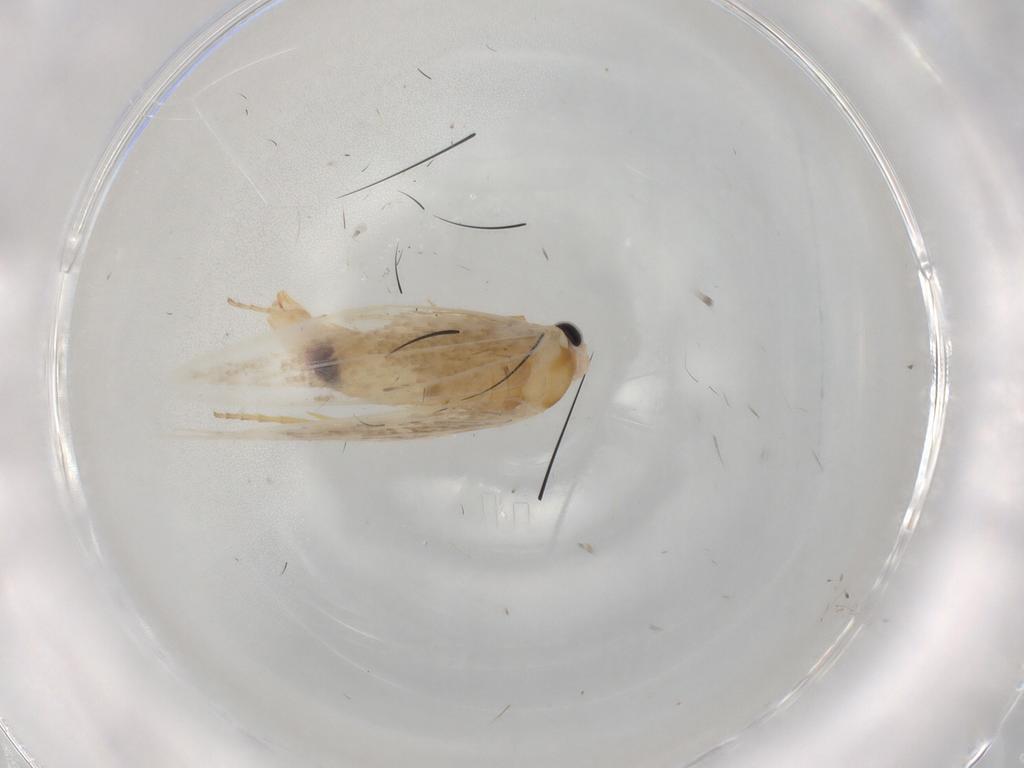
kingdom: Animalia
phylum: Arthropoda
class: Insecta
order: Lepidoptera
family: Bucculatricidae
